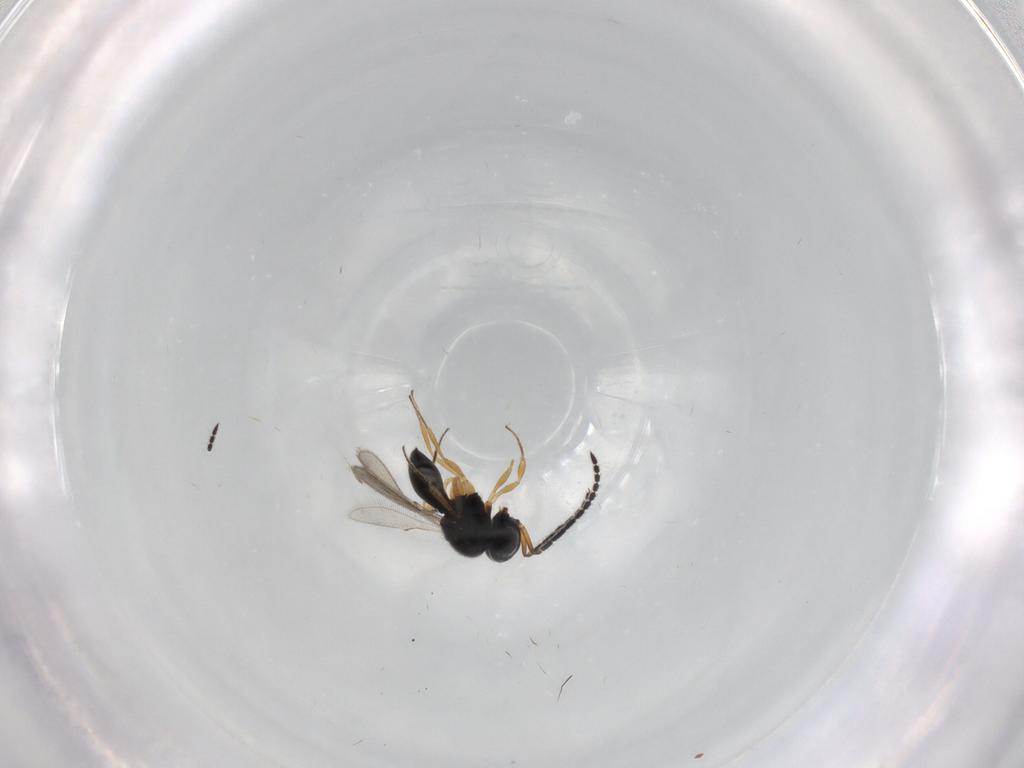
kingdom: Animalia
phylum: Arthropoda
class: Insecta
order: Hymenoptera
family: Scelionidae
